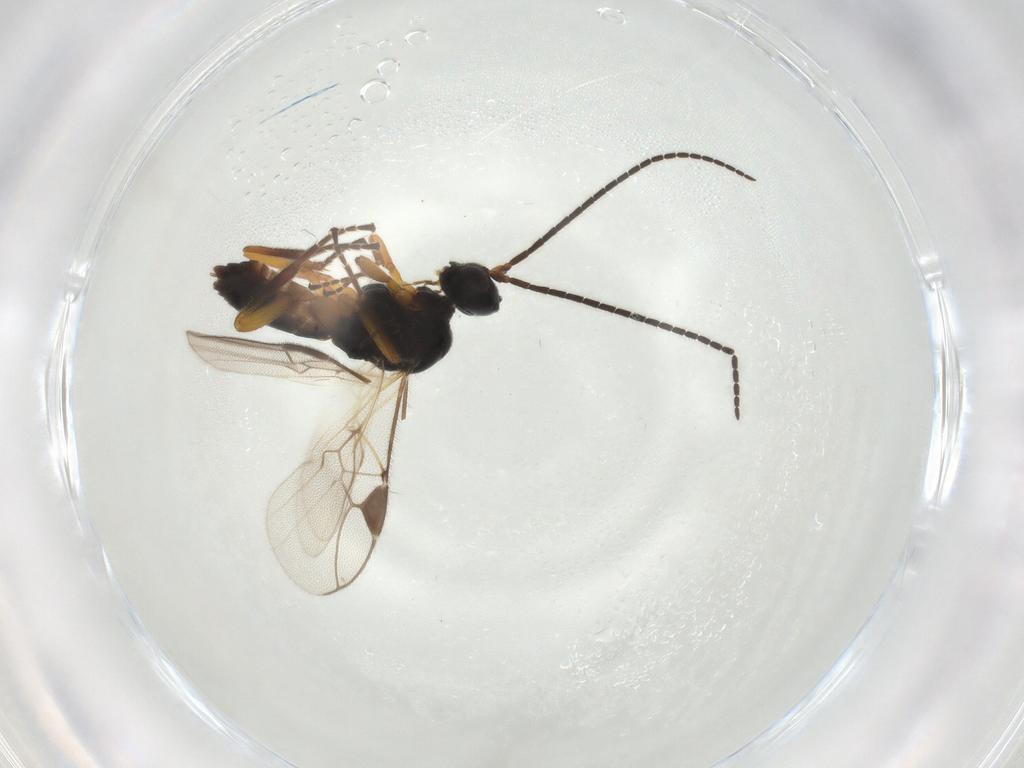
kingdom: Animalia
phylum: Arthropoda
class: Insecta
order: Hymenoptera
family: Braconidae
